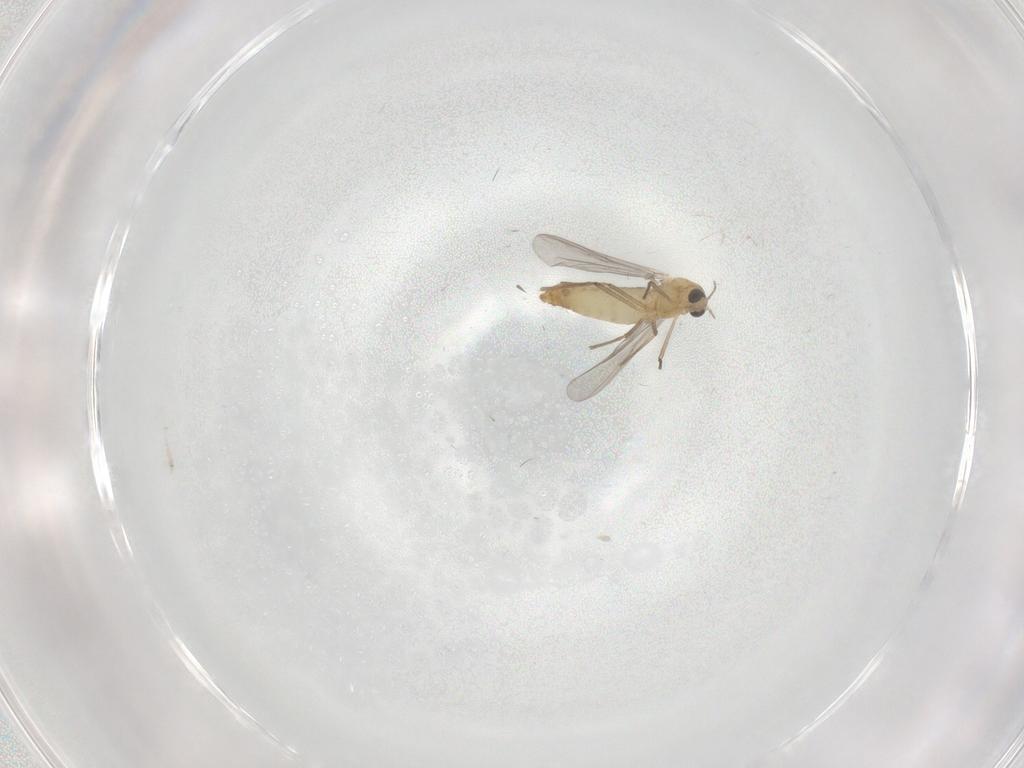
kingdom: Animalia
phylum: Arthropoda
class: Insecta
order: Diptera
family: Chironomidae
